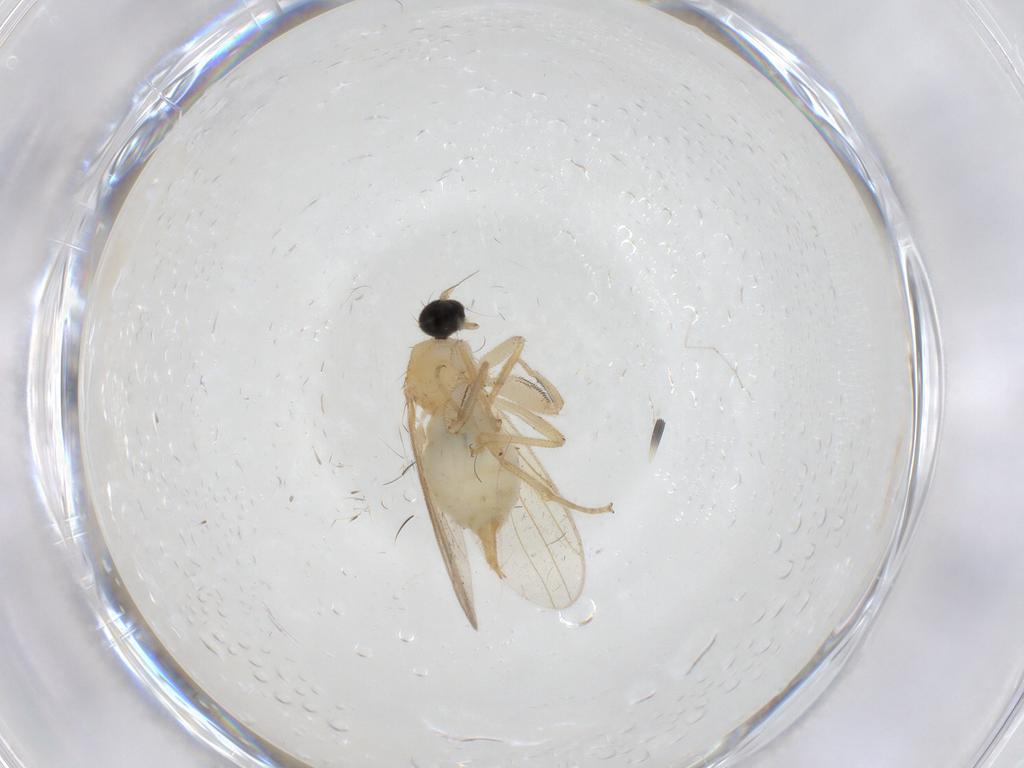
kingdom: Animalia
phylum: Arthropoda
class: Insecta
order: Diptera
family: Sciaridae
